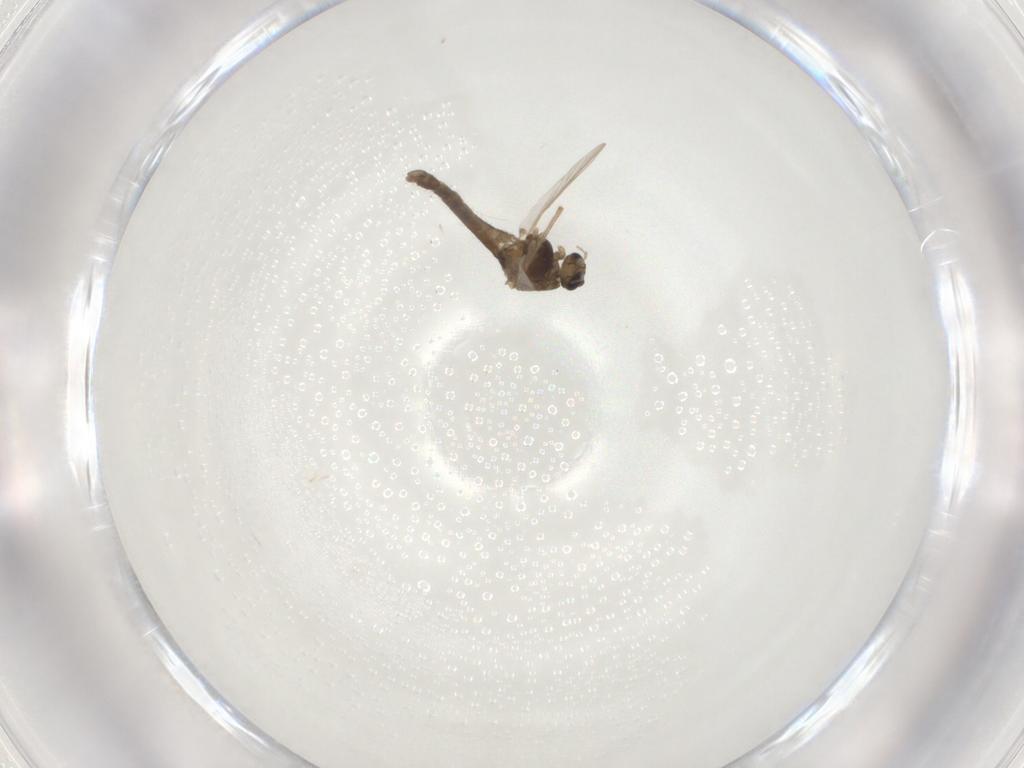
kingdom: Animalia
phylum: Arthropoda
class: Insecta
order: Diptera
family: Chironomidae
